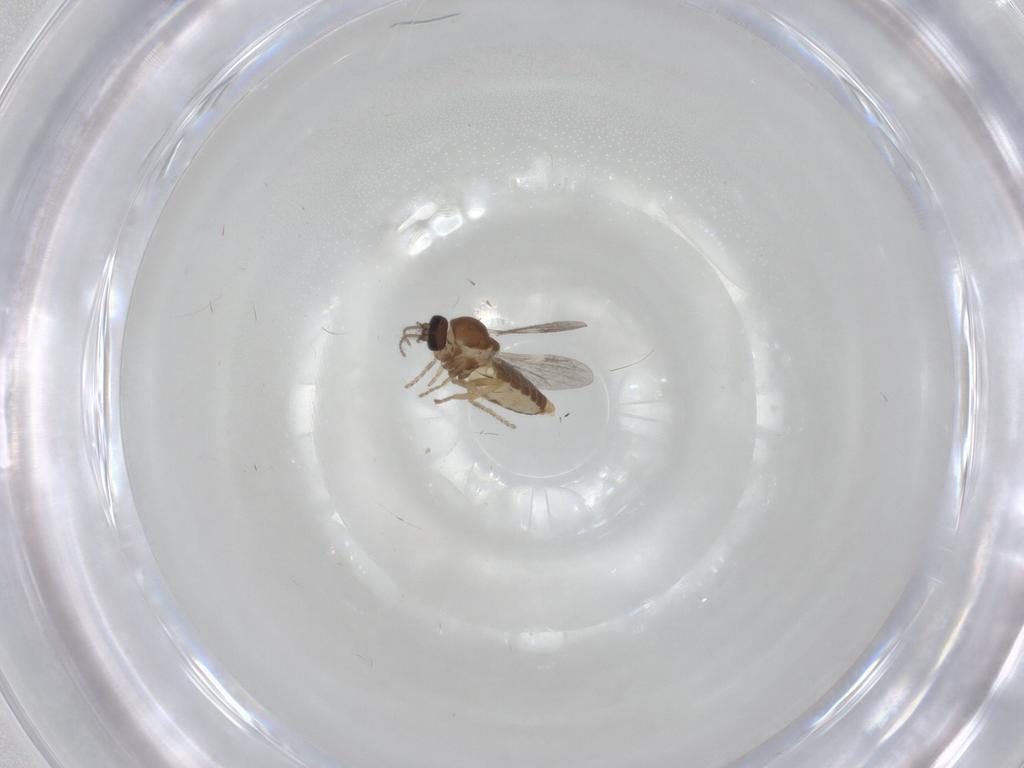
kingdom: Animalia
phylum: Arthropoda
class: Insecta
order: Diptera
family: Ceratopogonidae
